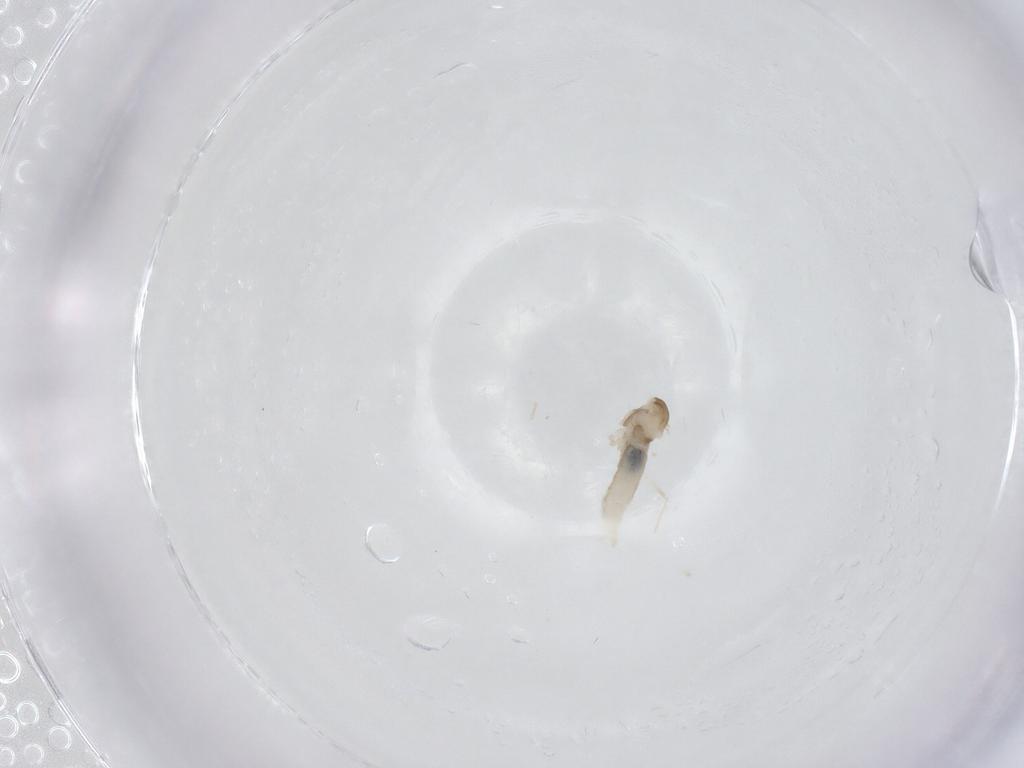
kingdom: Animalia
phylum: Arthropoda
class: Insecta
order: Diptera
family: Cecidomyiidae
